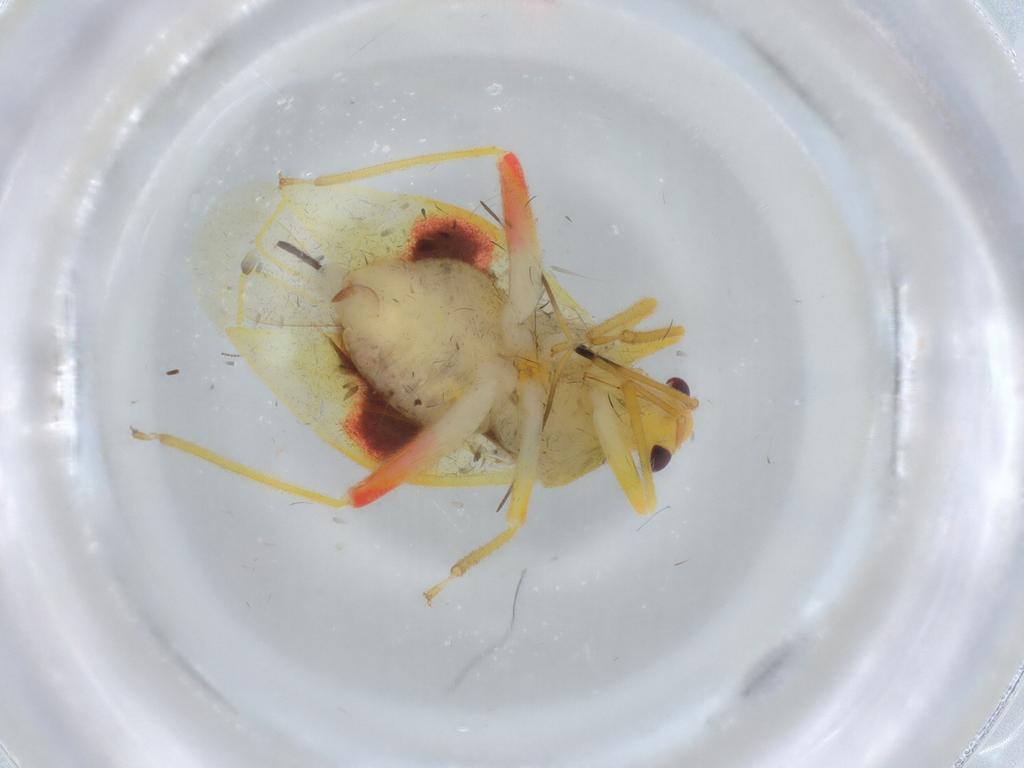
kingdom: Animalia
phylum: Arthropoda
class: Insecta
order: Hemiptera
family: Miridae
